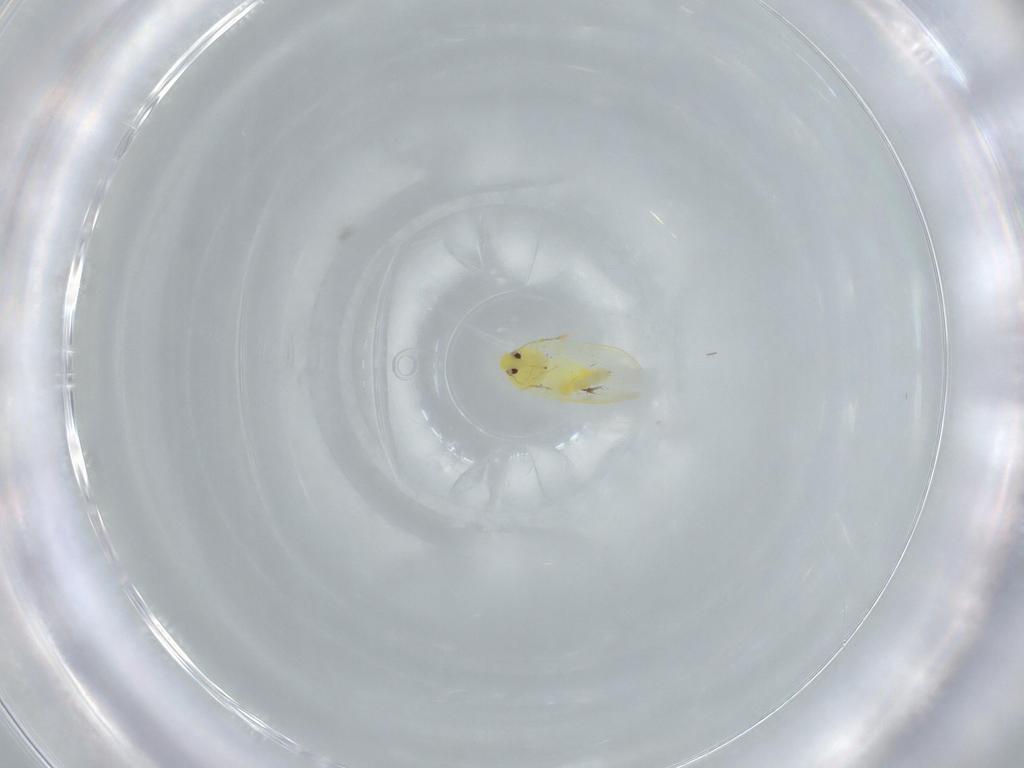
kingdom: Animalia
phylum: Arthropoda
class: Insecta
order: Hemiptera
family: Aleyrodidae
